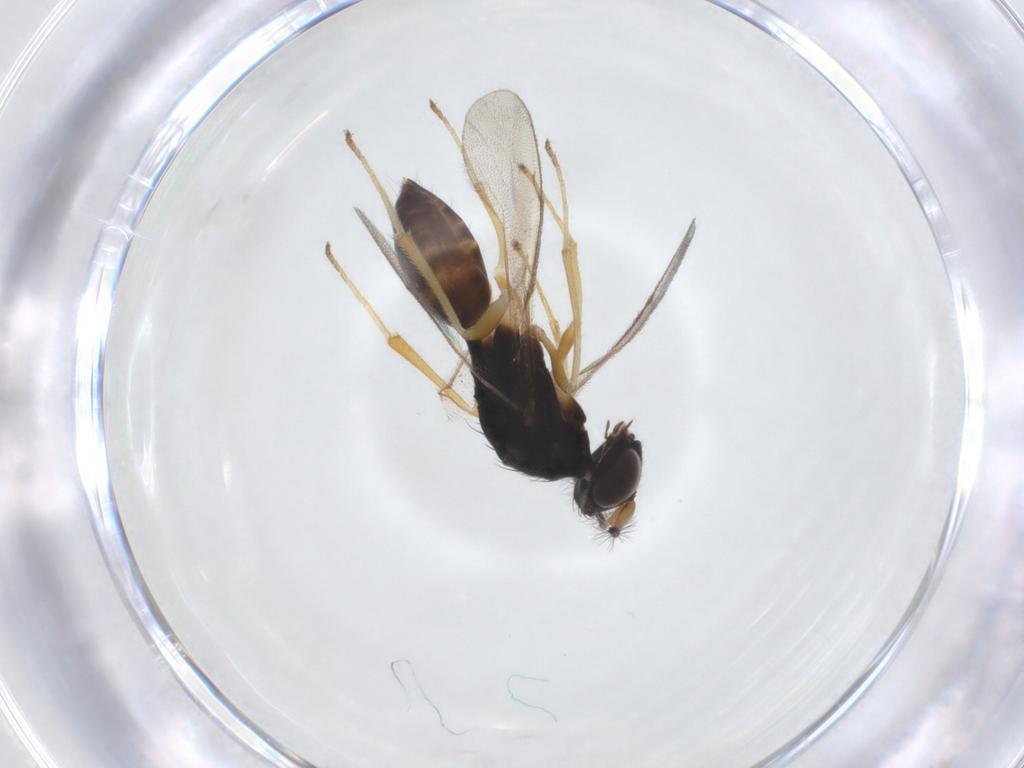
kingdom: Animalia
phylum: Arthropoda
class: Insecta
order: Hymenoptera
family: Diparidae
